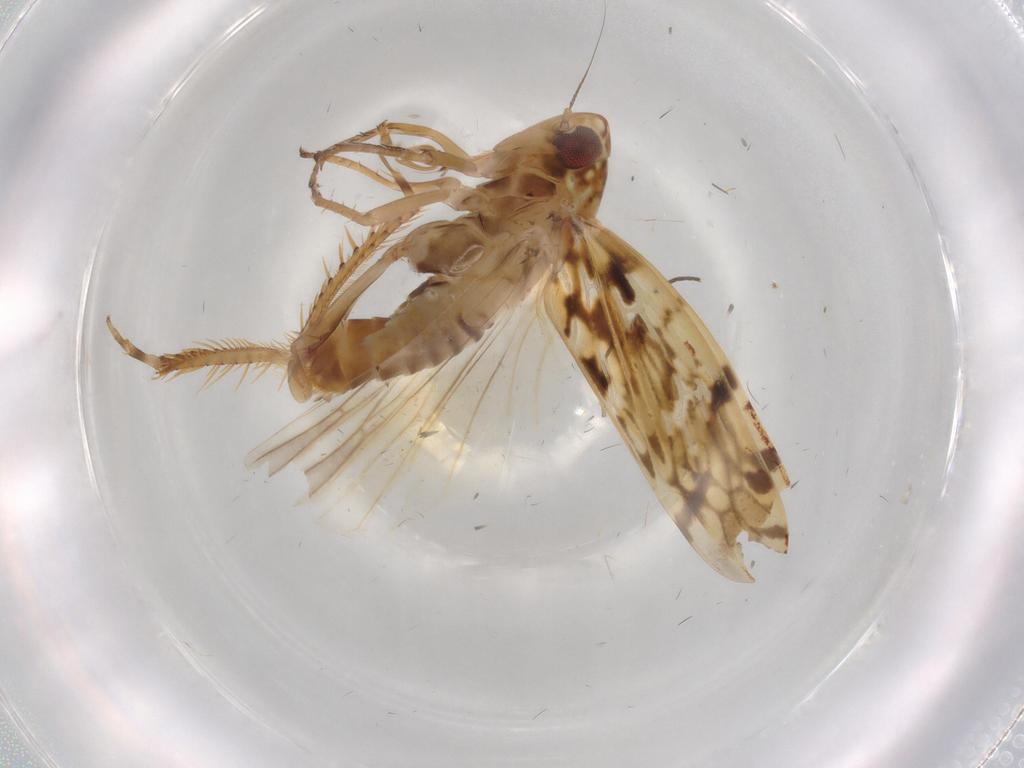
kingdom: Animalia
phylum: Arthropoda
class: Insecta
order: Hemiptera
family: Cicadellidae
